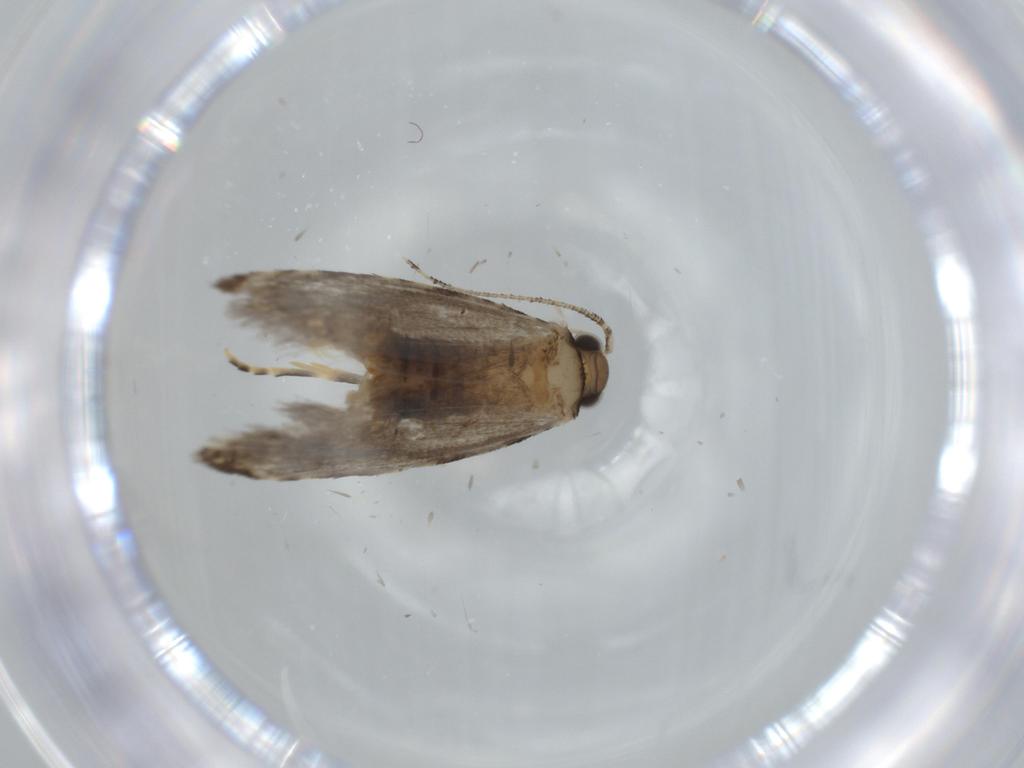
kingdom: Animalia
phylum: Arthropoda
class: Insecta
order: Lepidoptera
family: Tineidae
